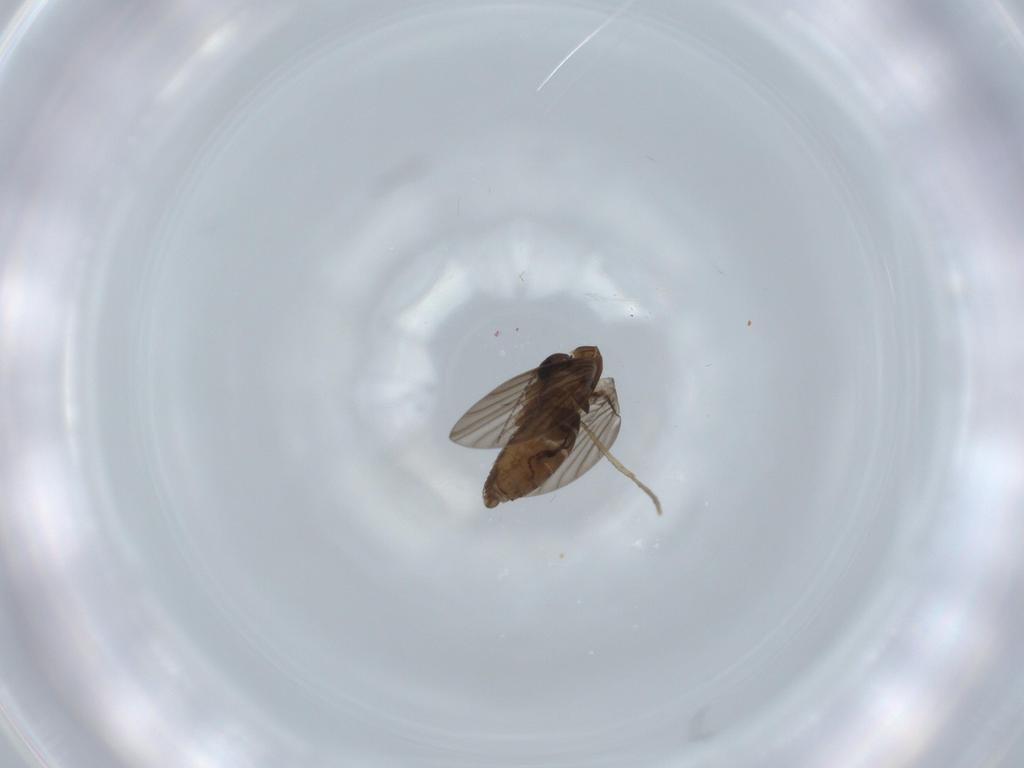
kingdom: Animalia
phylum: Arthropoda
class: Insecta
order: Diptera
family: Psychodidae
